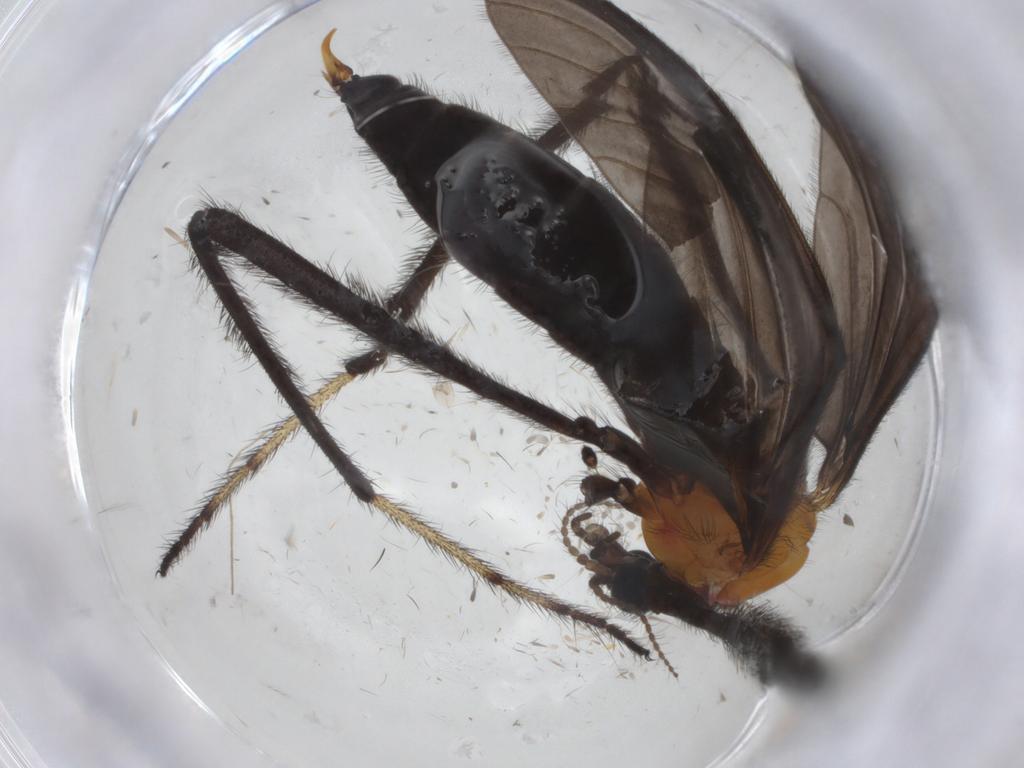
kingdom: Animalia
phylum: Arthropoda
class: Insecta
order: Diptera
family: Limoniidae
